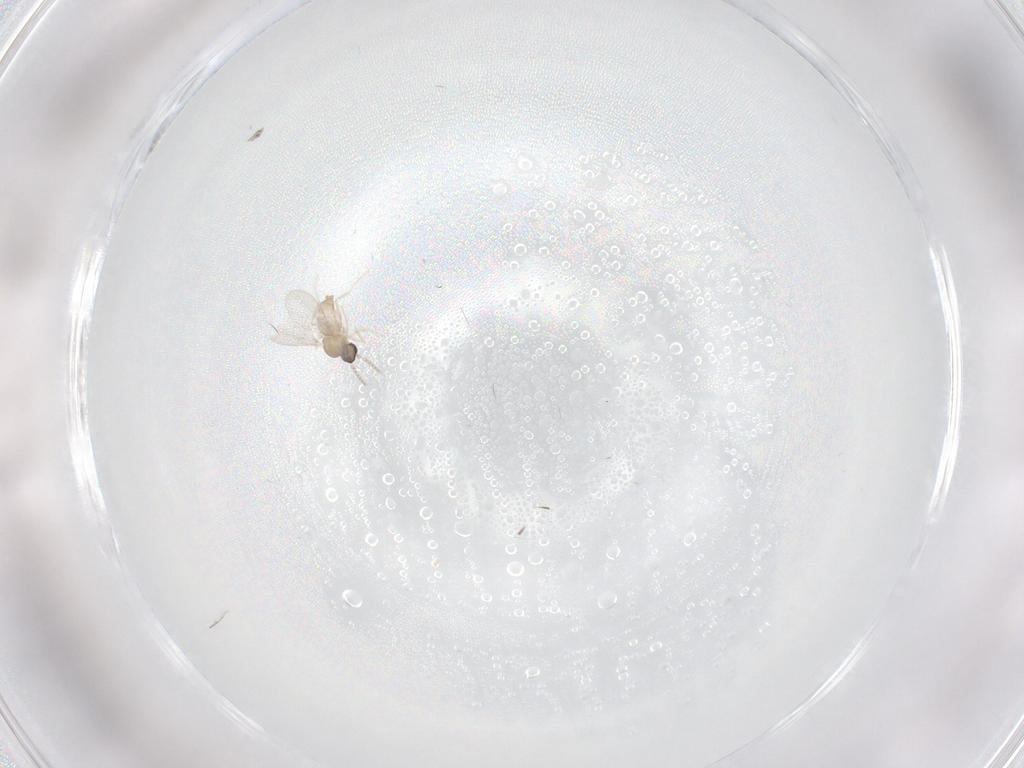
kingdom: Animalia
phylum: Arthropoda
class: Insecta
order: Diptera
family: Cecidomyiidae
